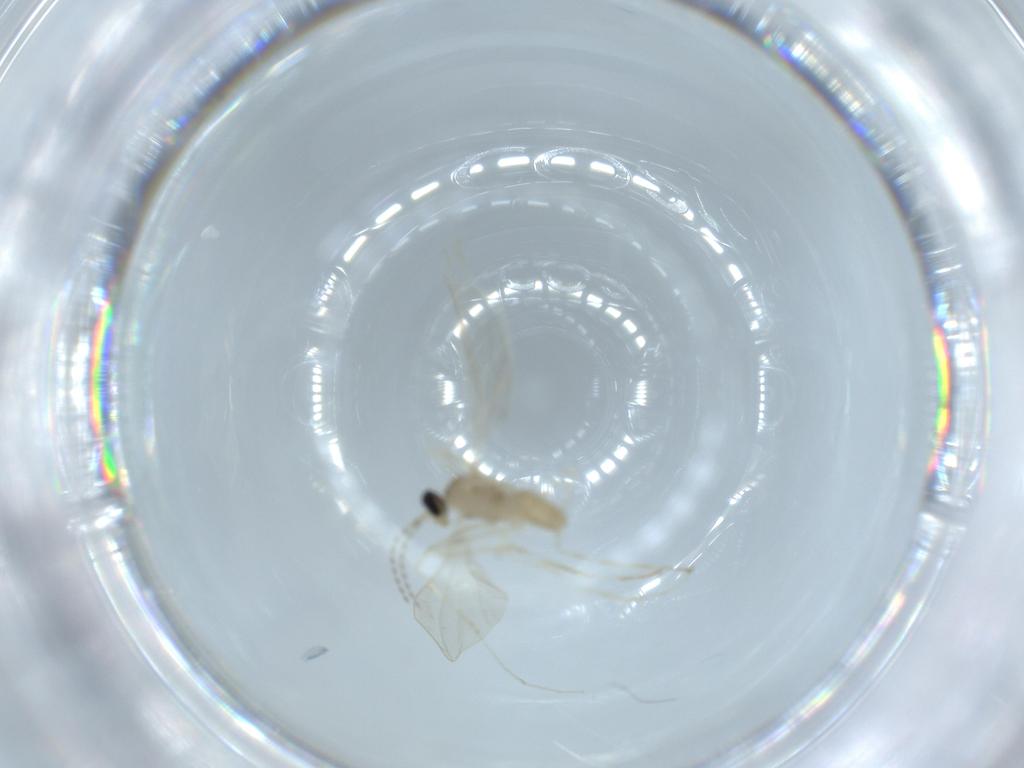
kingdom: Animalia
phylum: Arthropoda
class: Insecta
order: Diptera
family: Cecidomyiidae
